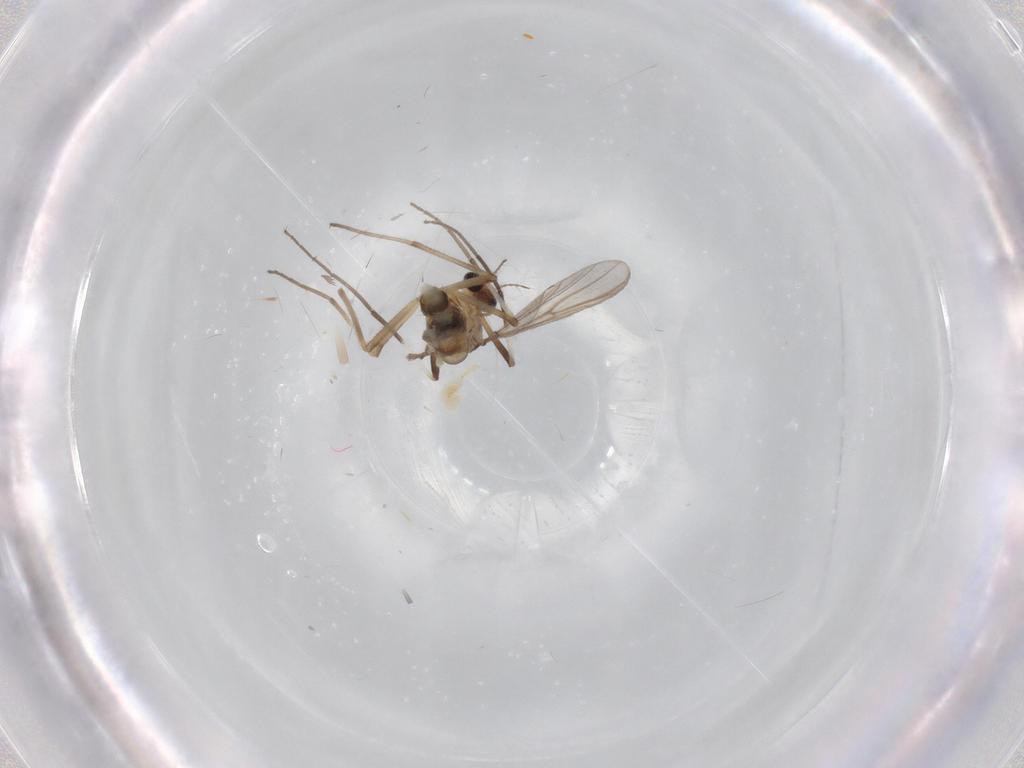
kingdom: Animalia
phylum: Arthropoda
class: Insecta
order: Diptera
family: Sciaridae
